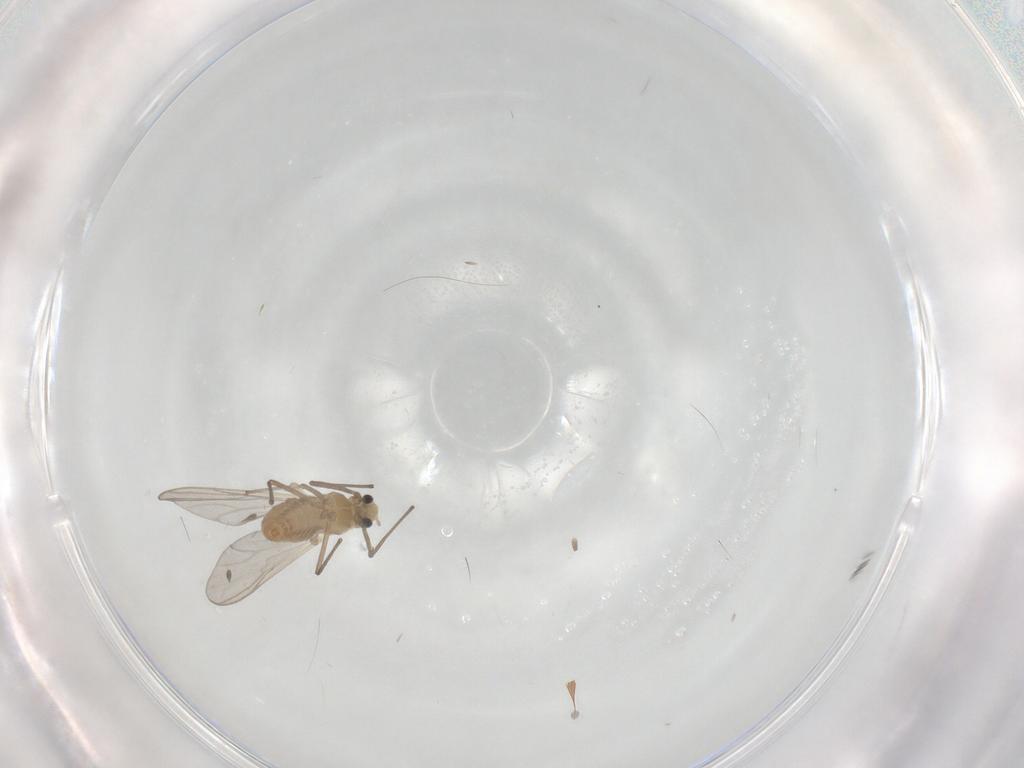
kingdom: Animalia
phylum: Arthropoda
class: Insecta
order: Diptera
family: Chironomidae
